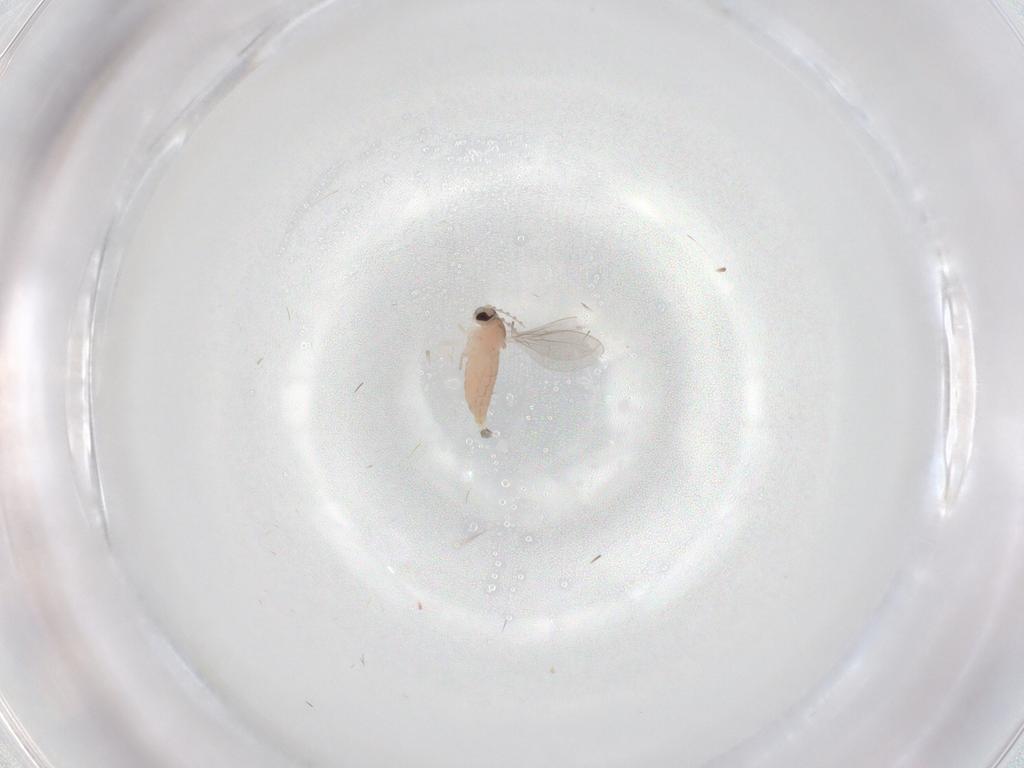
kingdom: Animalia
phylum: Arthropoda
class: Insecta
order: Diptera
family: Cecidomyiidae
